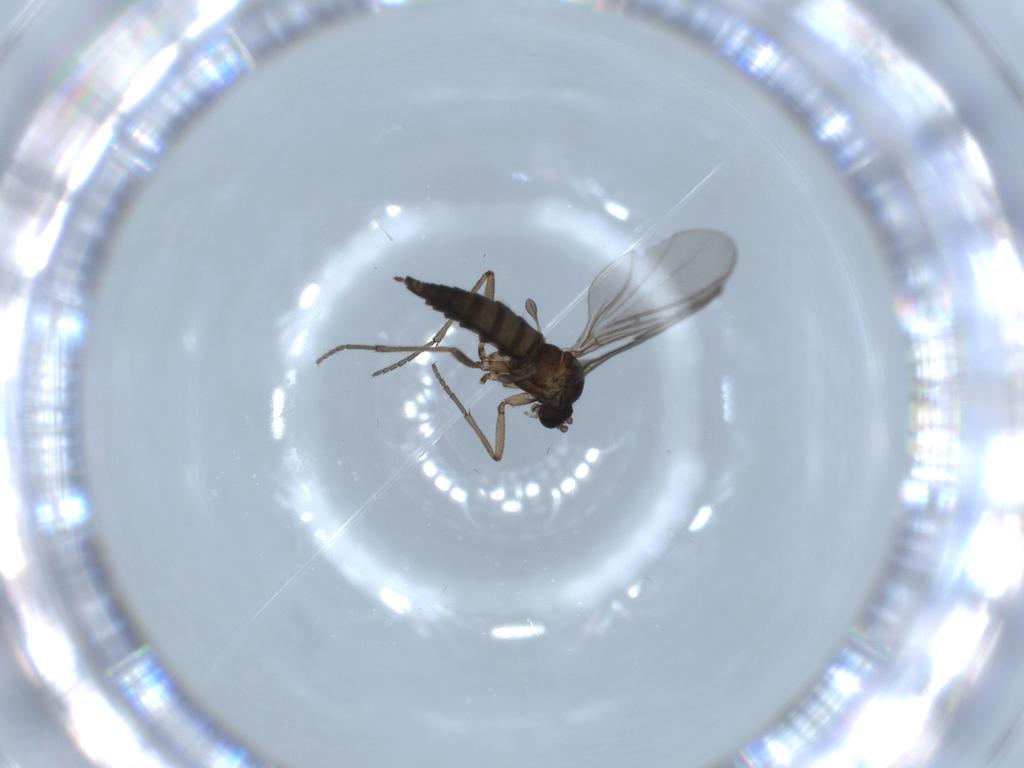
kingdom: Animalia
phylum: Arthropoda
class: Insecta
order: Diptera
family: Sciaridae
